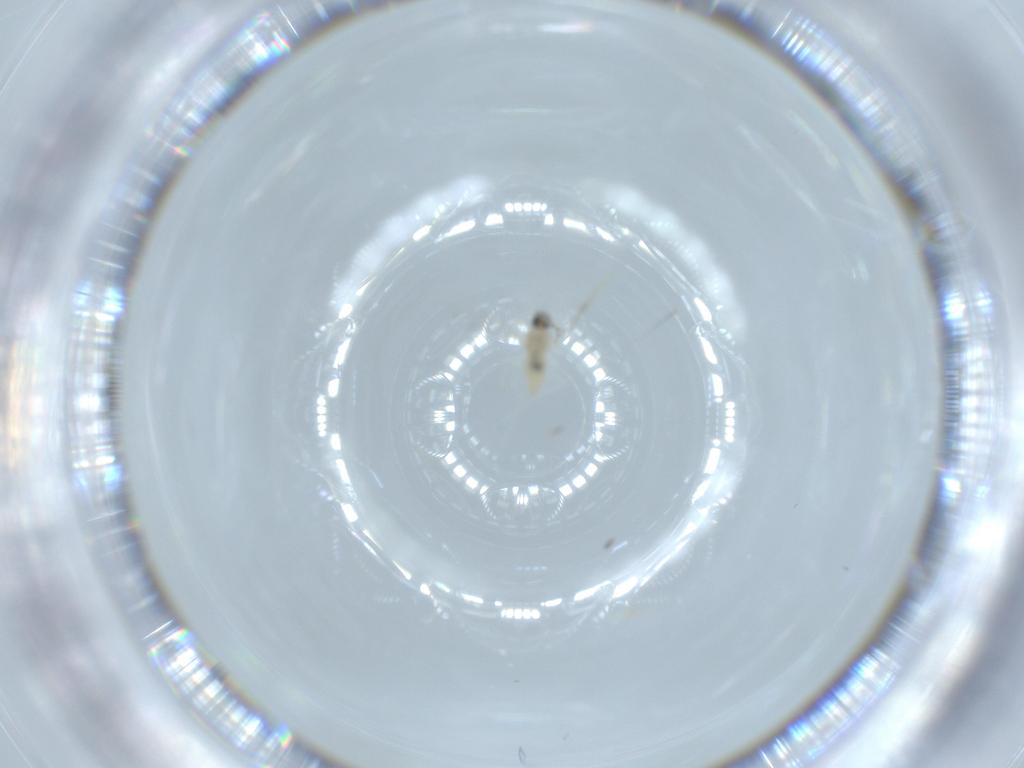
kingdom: Animalia
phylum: Arthropoda
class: Insecta
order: Diptera
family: Cecidomyiidae
